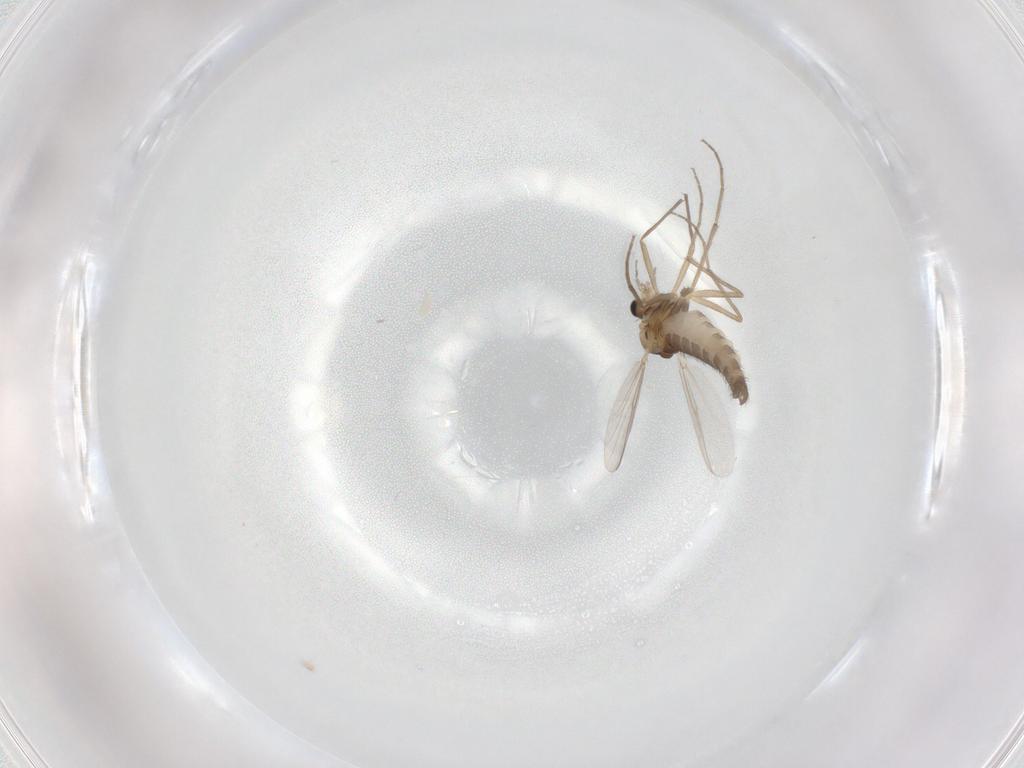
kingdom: Animalia
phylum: Arthropoda
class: Insecta
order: Diptera
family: Chironomidae
